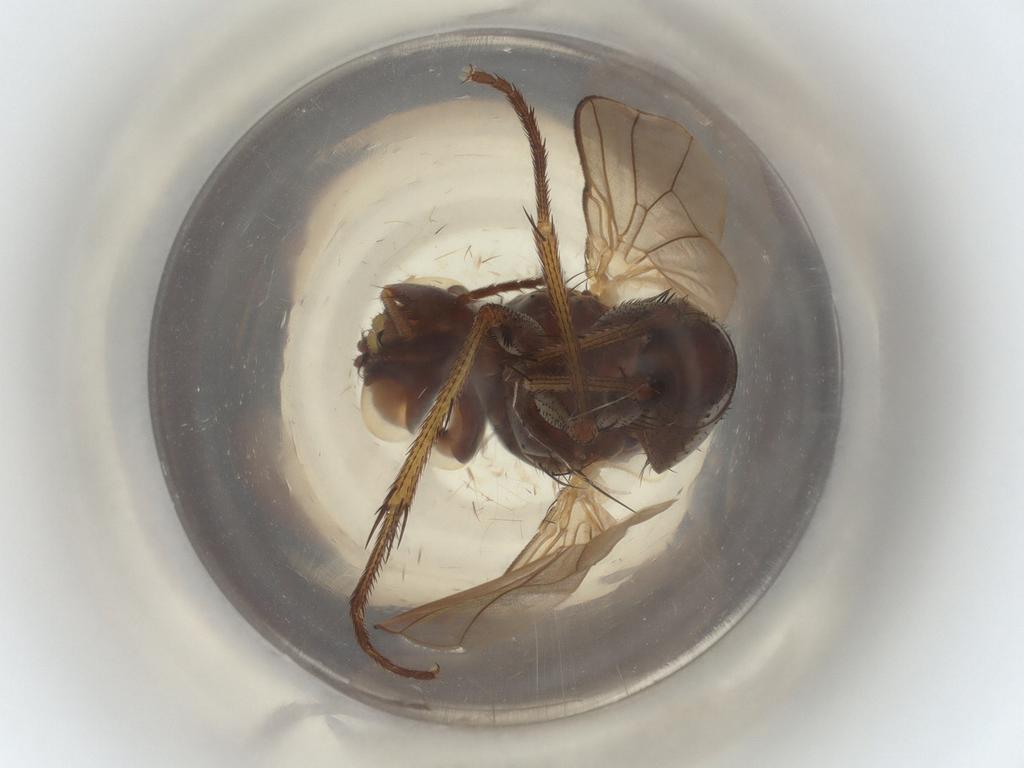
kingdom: Animalia
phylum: Arthropoda
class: Insecta
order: Diptera
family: Muscidae
